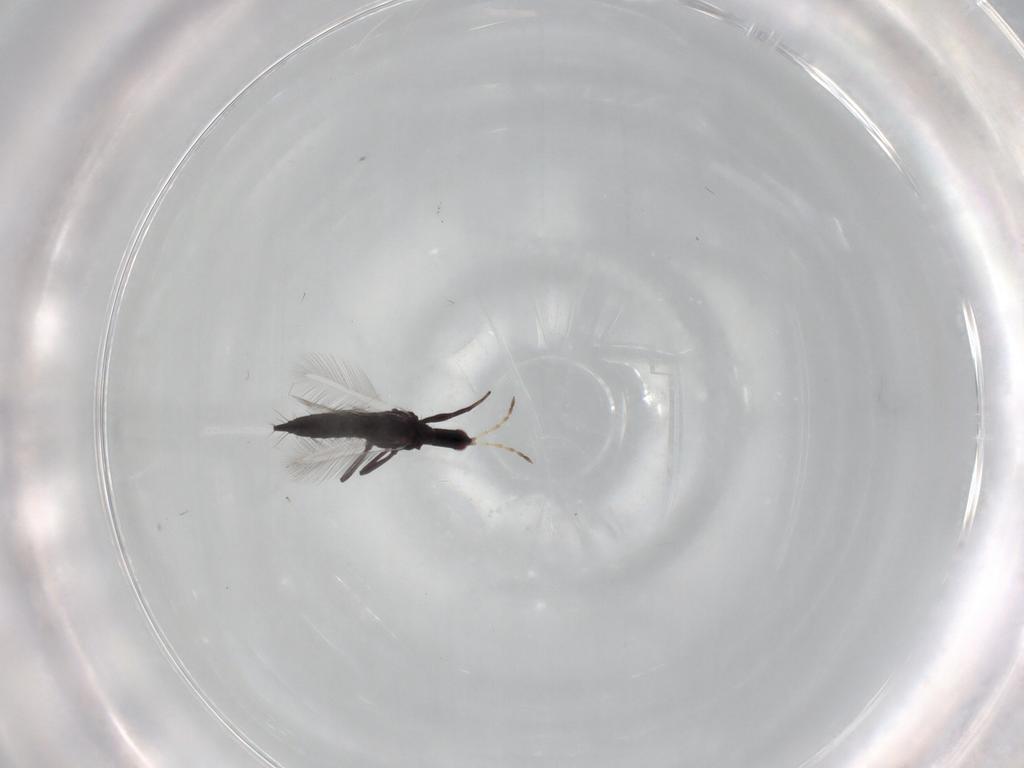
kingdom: Animalia
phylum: Arthropoda
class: Insecta
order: Thysanoptera
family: Phlaeothripidae
